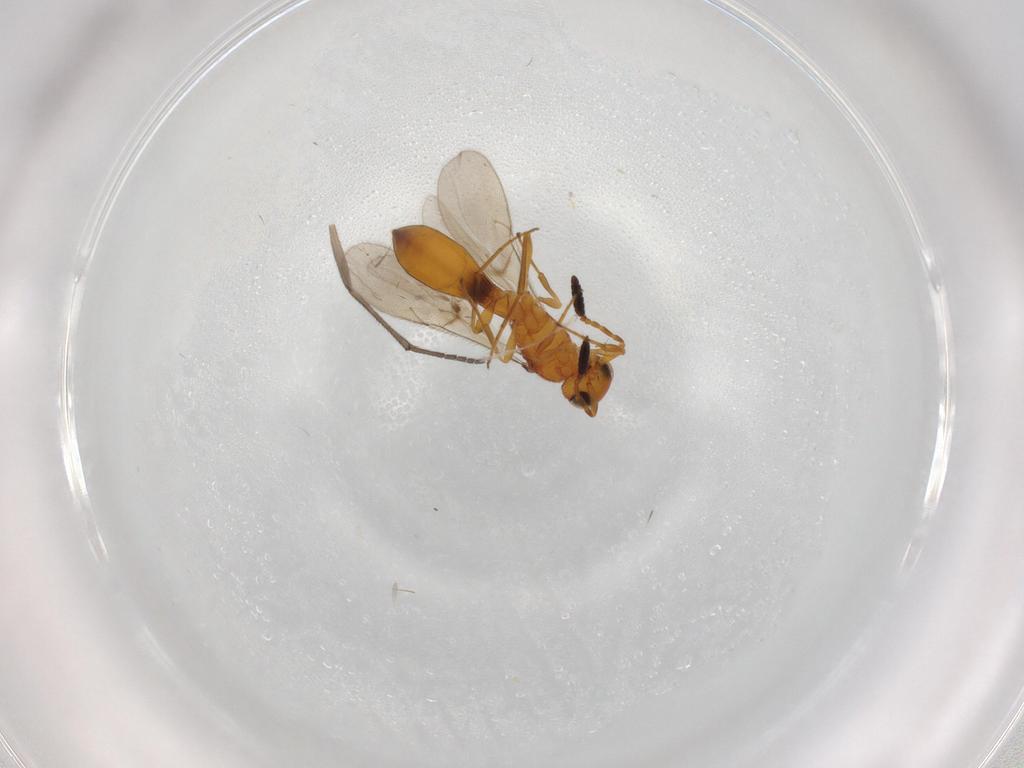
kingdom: Animalia
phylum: Arthropoda
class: Insecta
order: Hymenoptera
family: Scelionidae
